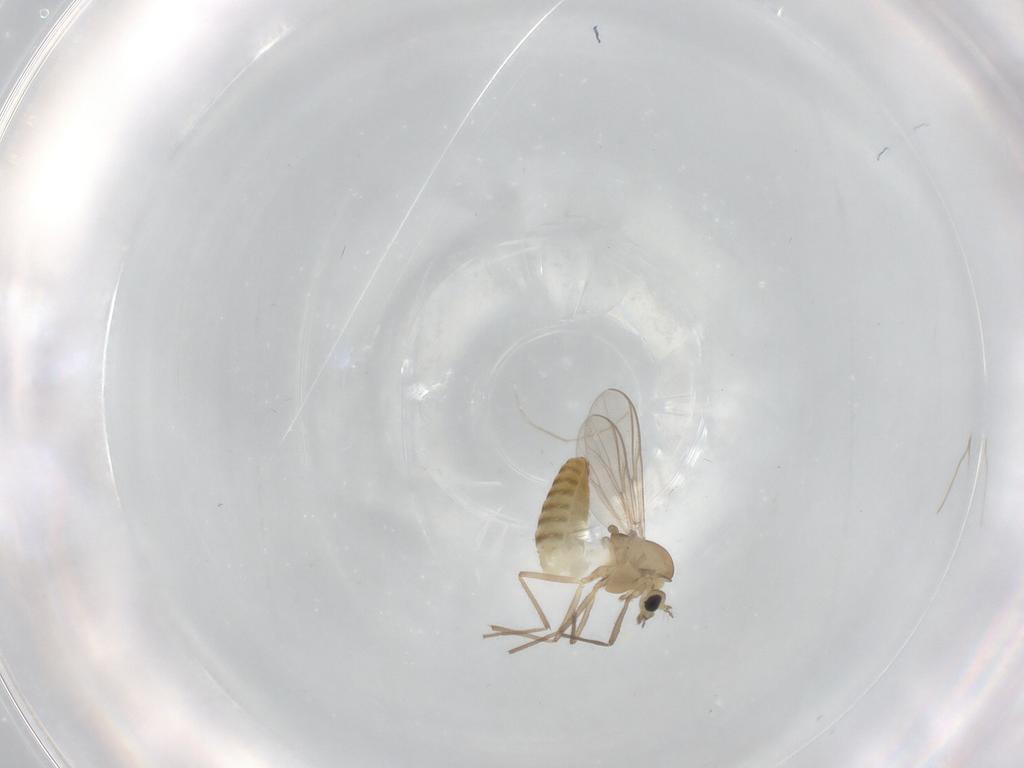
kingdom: Animalia
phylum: Arthropoda
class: Insecta
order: Diptera
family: Chironomidae
